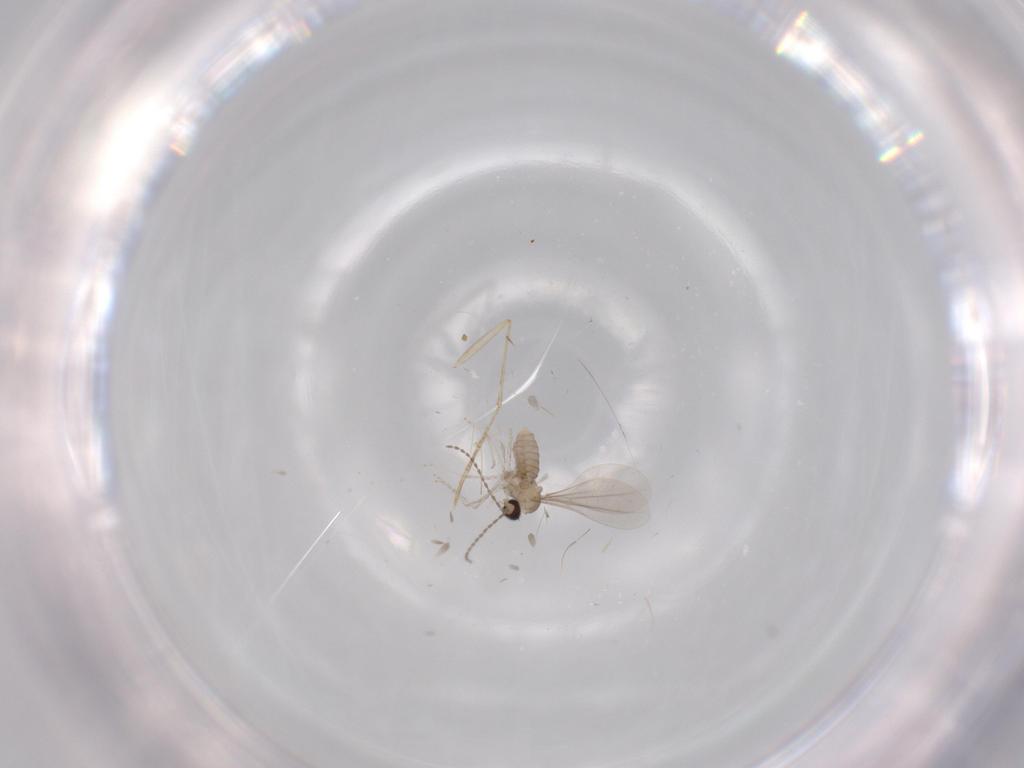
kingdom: Animalia
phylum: Arthropoda
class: Insecta
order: Diptera
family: Psychodidae
